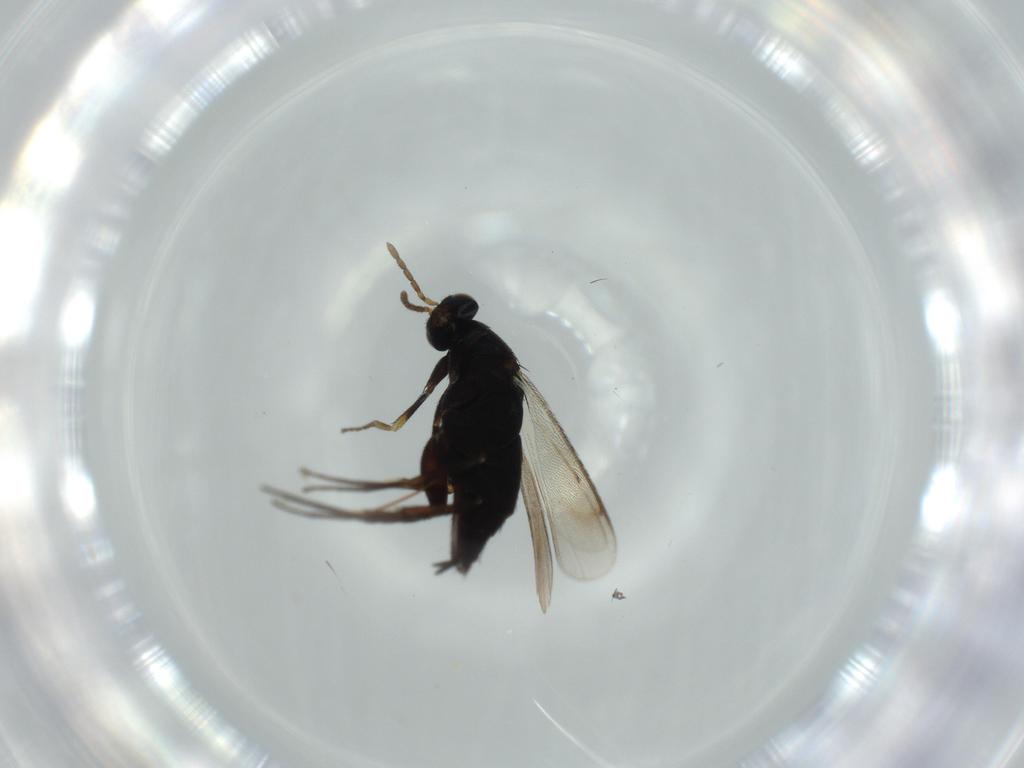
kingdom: Animalia
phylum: Arthropoda
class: Insecta
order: Hymenoptera
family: Eulophidae
